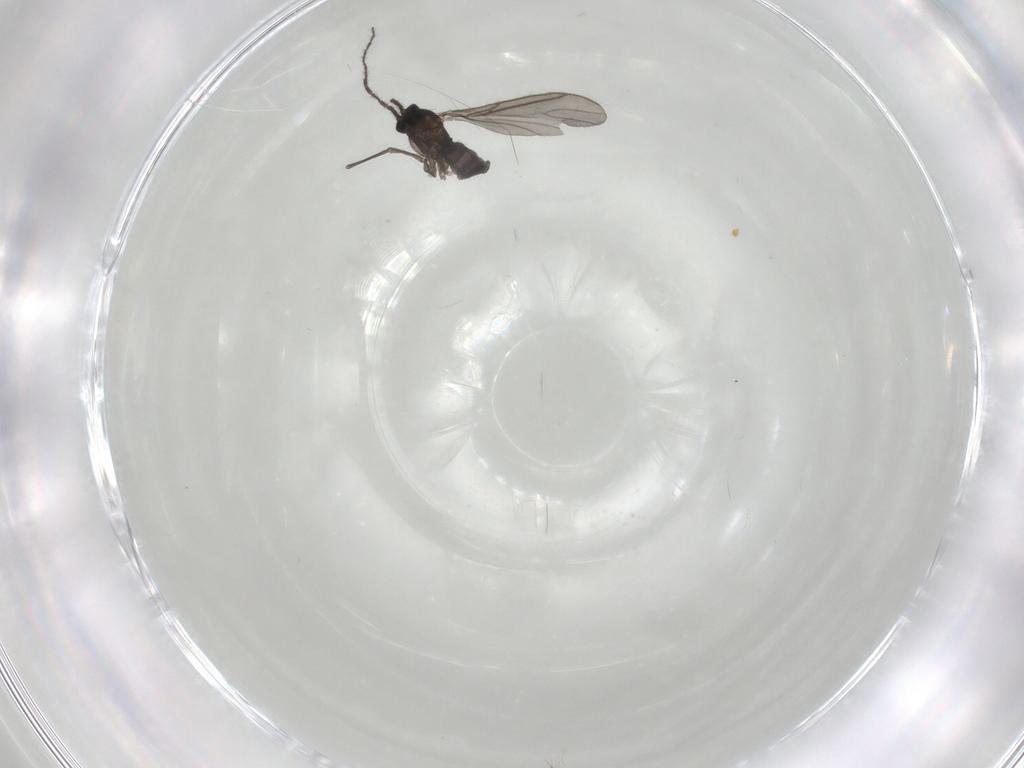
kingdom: Animalia
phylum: Arthropoda
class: Insecta
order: Diptera
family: Sciaridae
